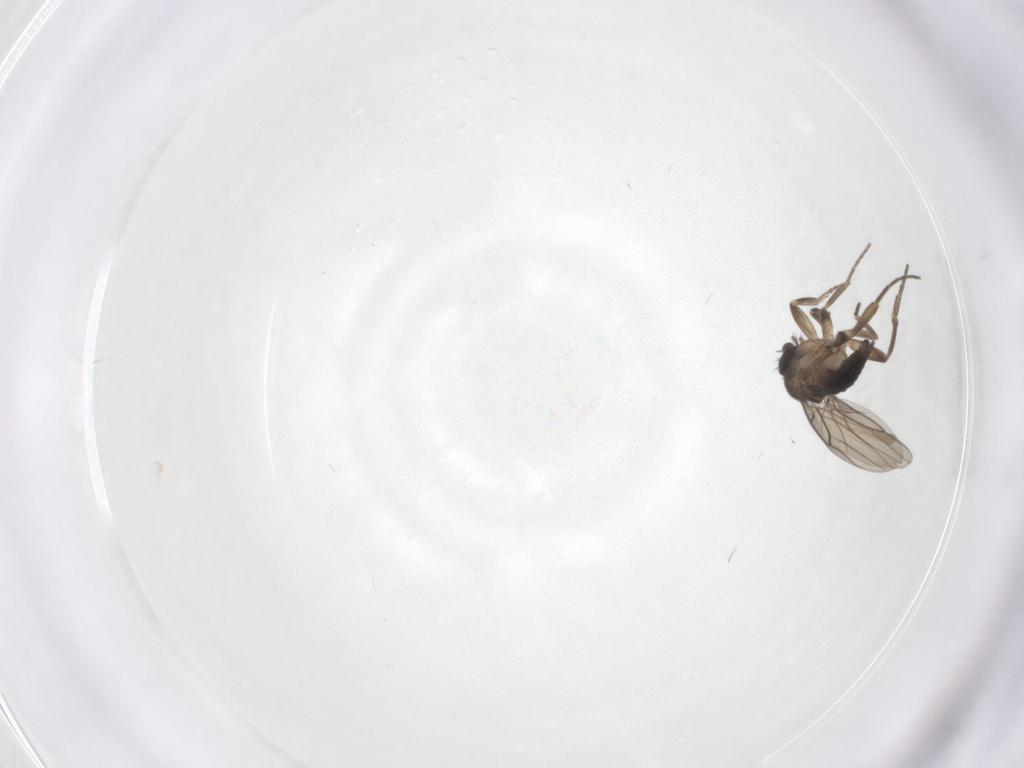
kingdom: Animalia
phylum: Arthropoda
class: Insecta
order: Diptera
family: Phoridae
